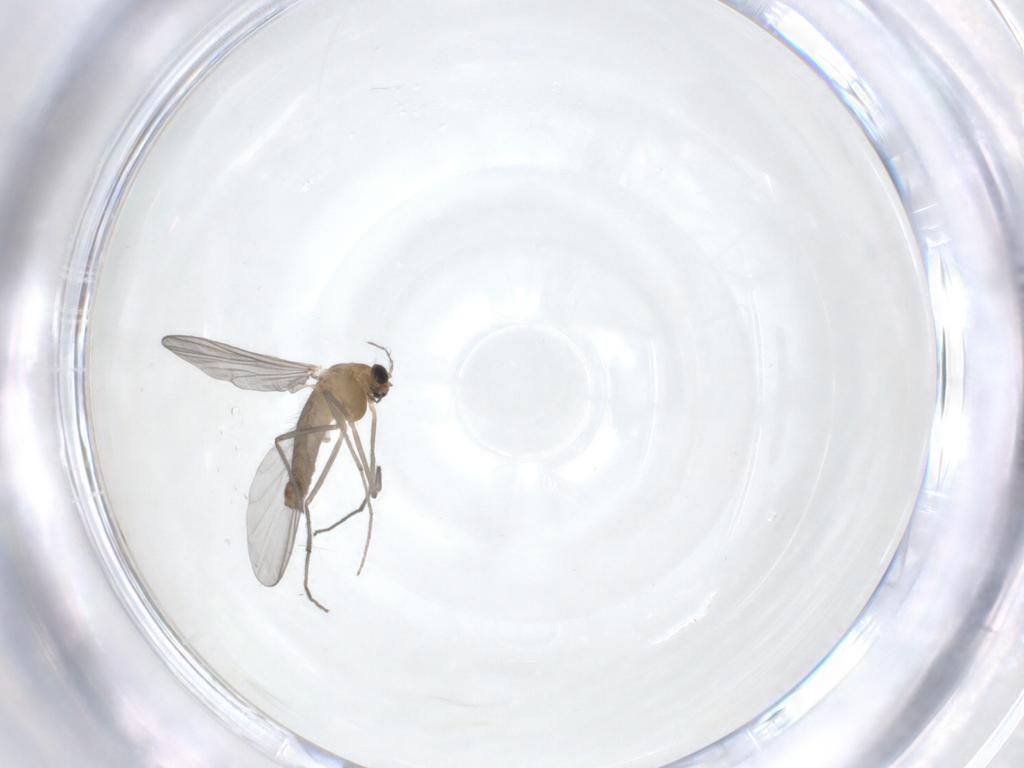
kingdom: Animalia
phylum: Arthropoda
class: Insecta
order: Diptera
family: Chironomidae
